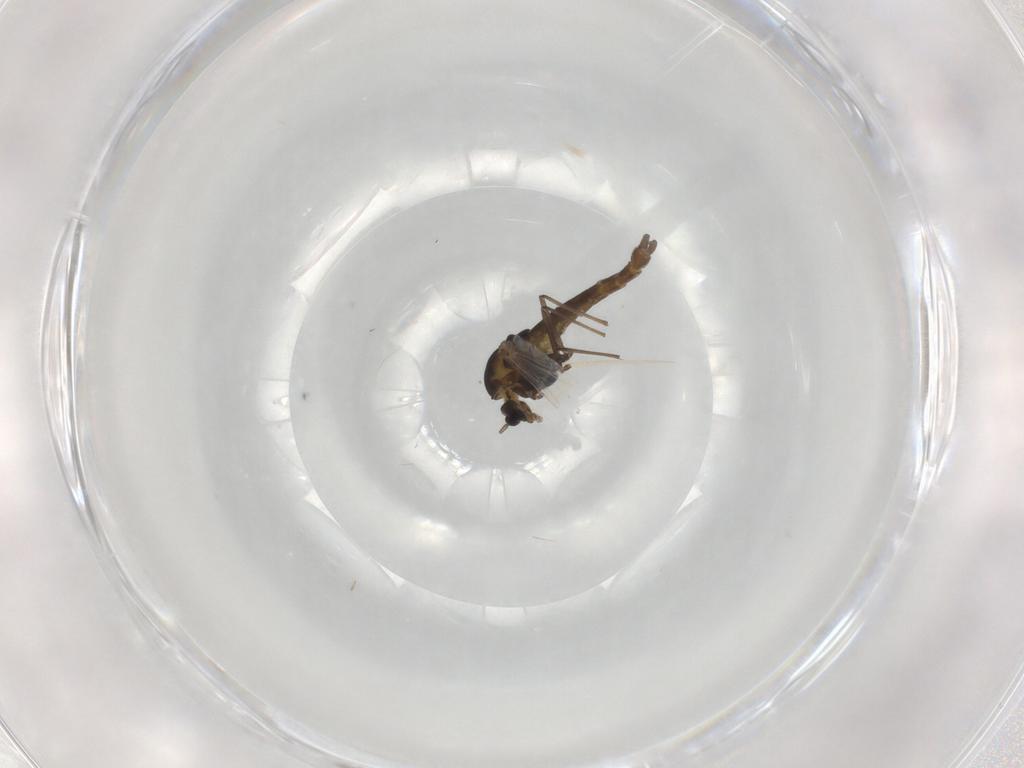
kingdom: Animalia
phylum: Arthropoda
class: Insecta
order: Diptera
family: Chironomidae
